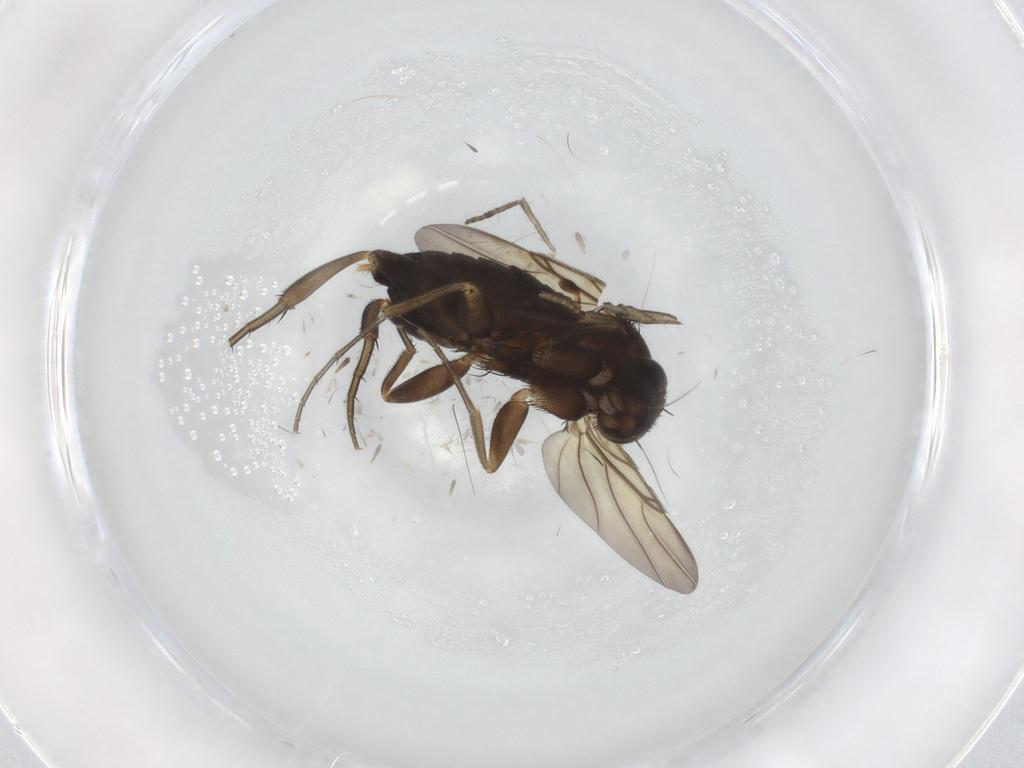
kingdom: Animalia
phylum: Arthropoda
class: Insecta
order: Diptera
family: Phoridae
